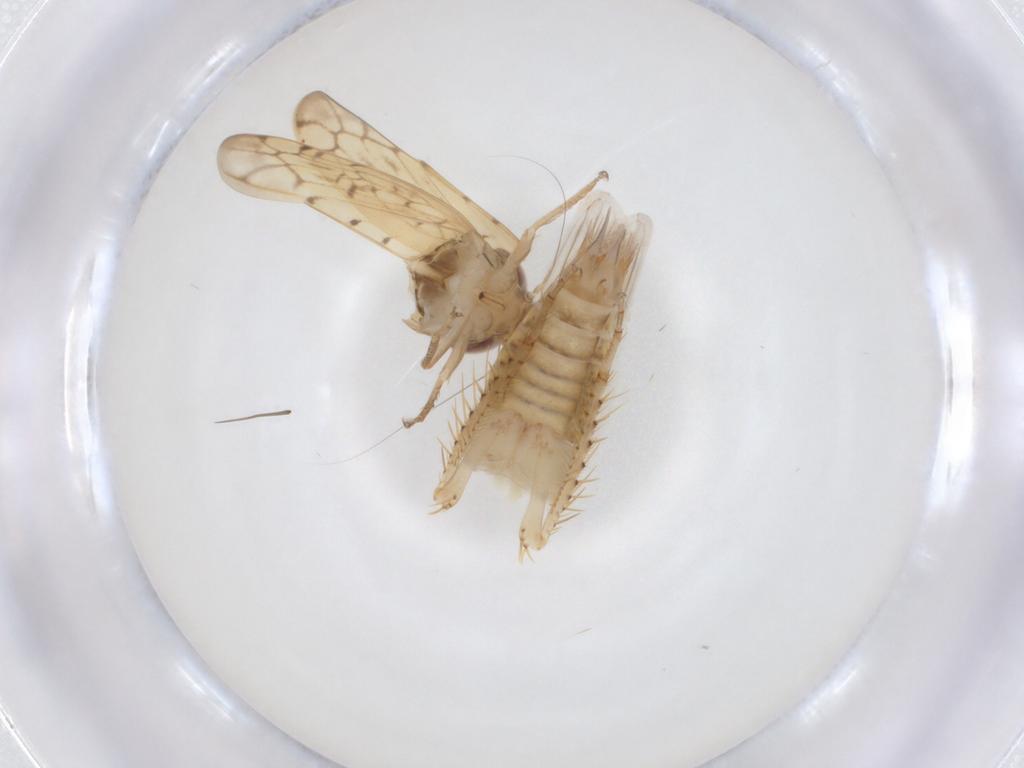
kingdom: Animalia
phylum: Arthropoda
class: Insecta
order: Hemiptera
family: Cicadellidae
